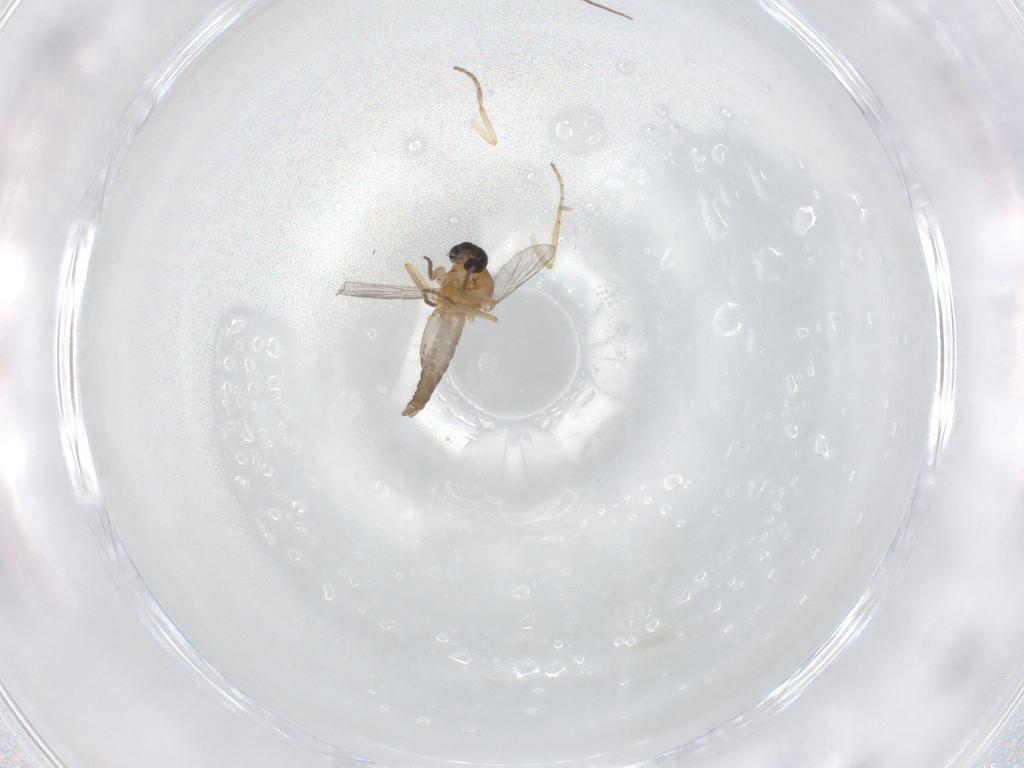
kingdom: Animalia
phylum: Arthropoda
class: Insecta
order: Diptera
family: Ceratopogonidae
